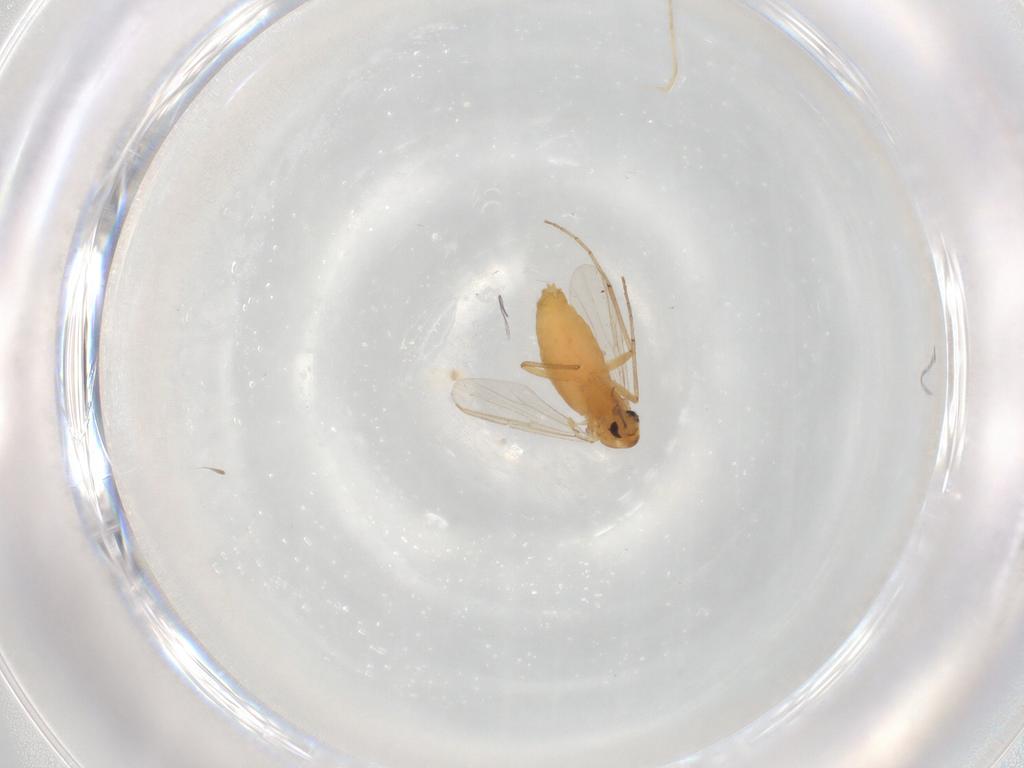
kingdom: Animalia
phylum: Arthropoda
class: Insecta
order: Diptera
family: Cecidomyiidae
